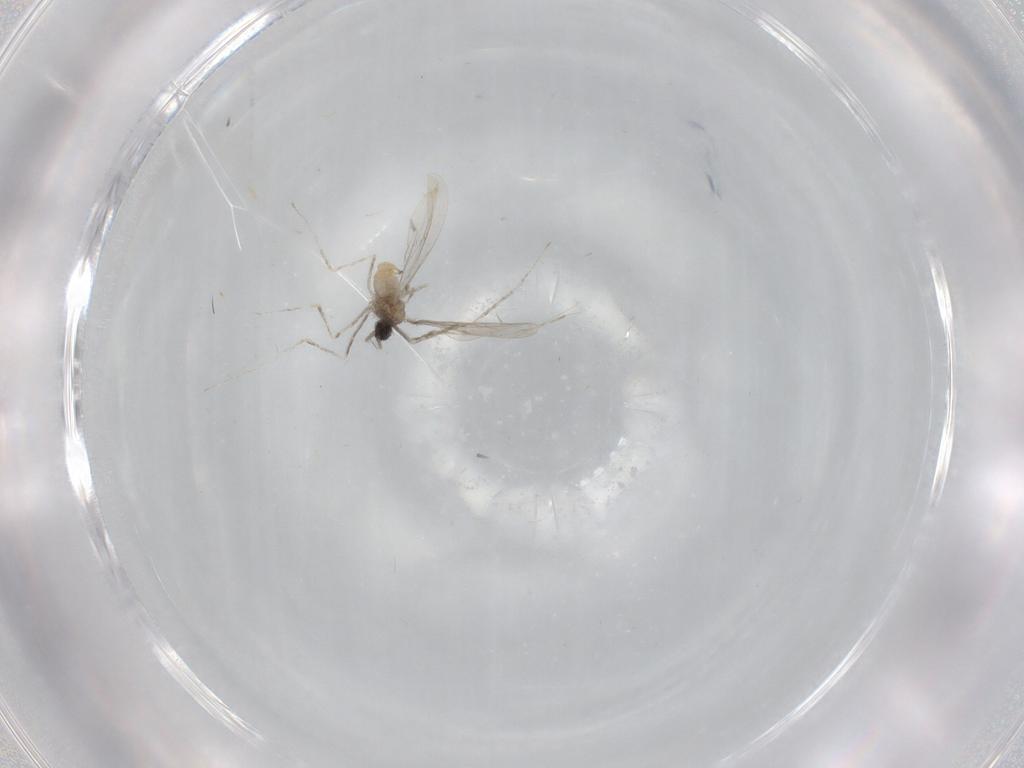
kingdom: Animalia
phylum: Arthropoda
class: Insecta
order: Diptera
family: Cecidomyiidae
